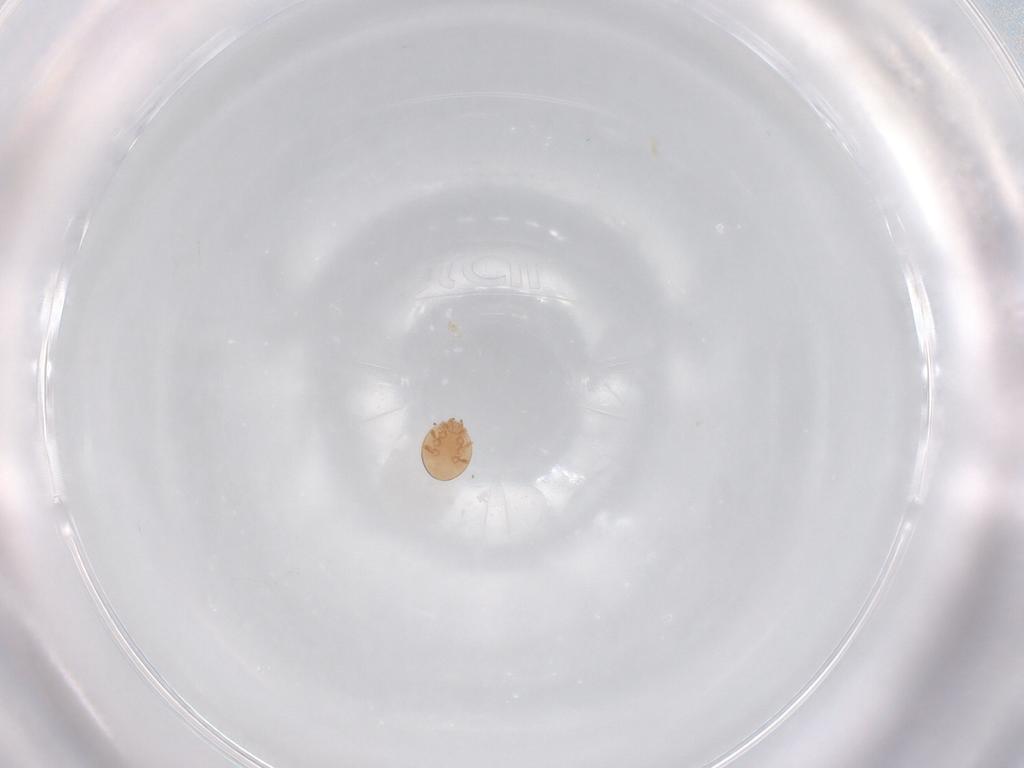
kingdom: Animalia
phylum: Arthropoda
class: Arachnida
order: Mesostigmata
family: Trematuridae
